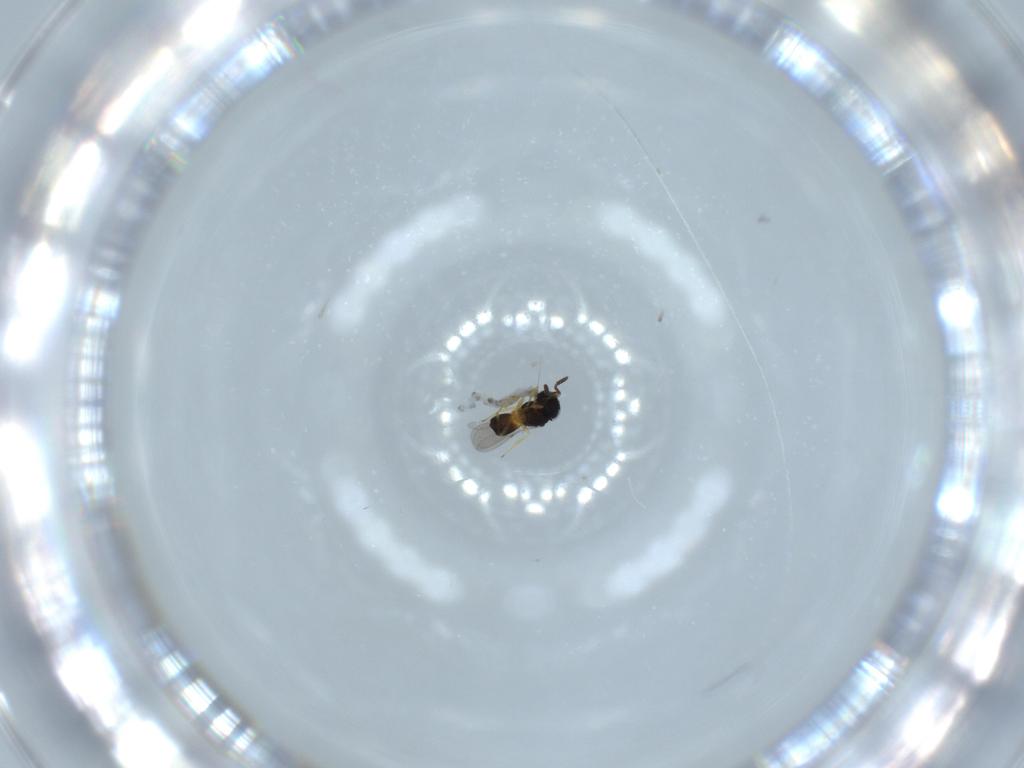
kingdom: Animalia
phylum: Arthropoda
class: Insecta
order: Hymenoptera
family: Scelionidae
